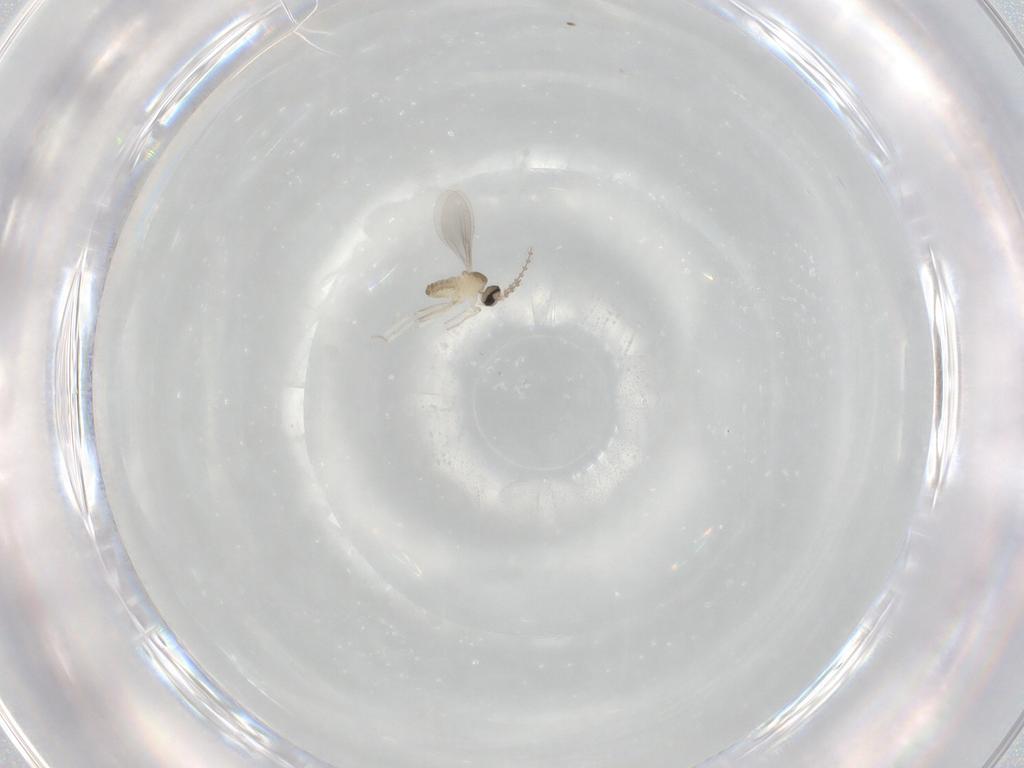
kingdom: Animalia
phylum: Arthropoda
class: Insecta
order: Diptera
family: Cecidomyiidae
